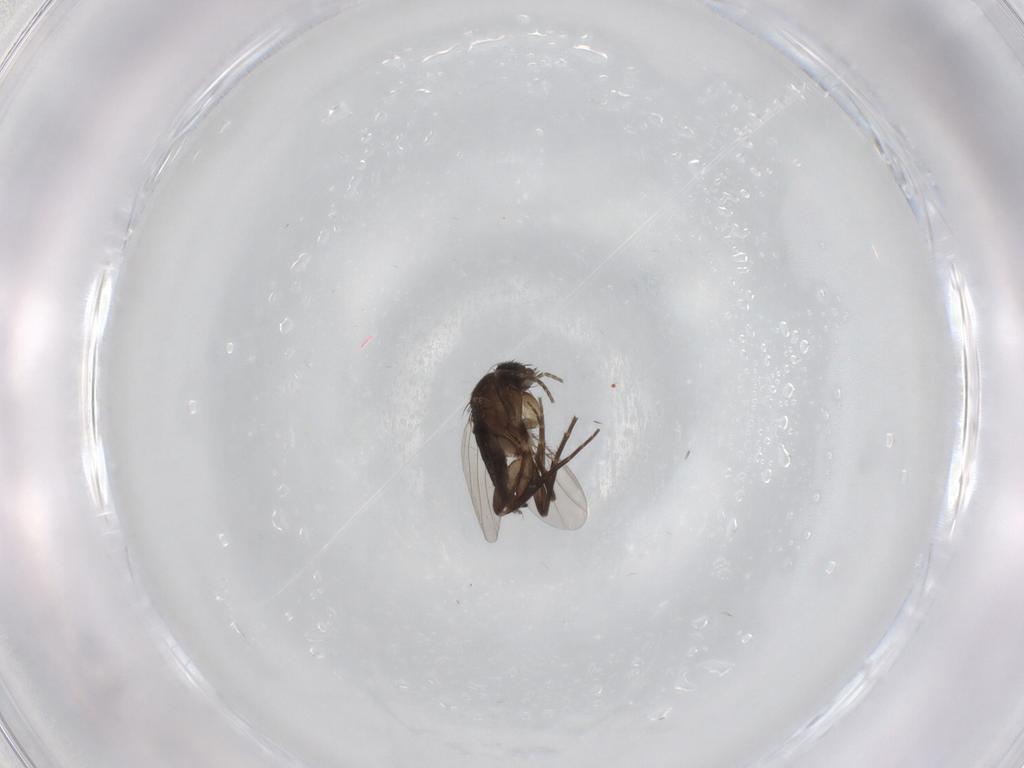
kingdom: Animalia
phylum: Arthropoda
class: Insecta
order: Diptera
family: Phoridae
